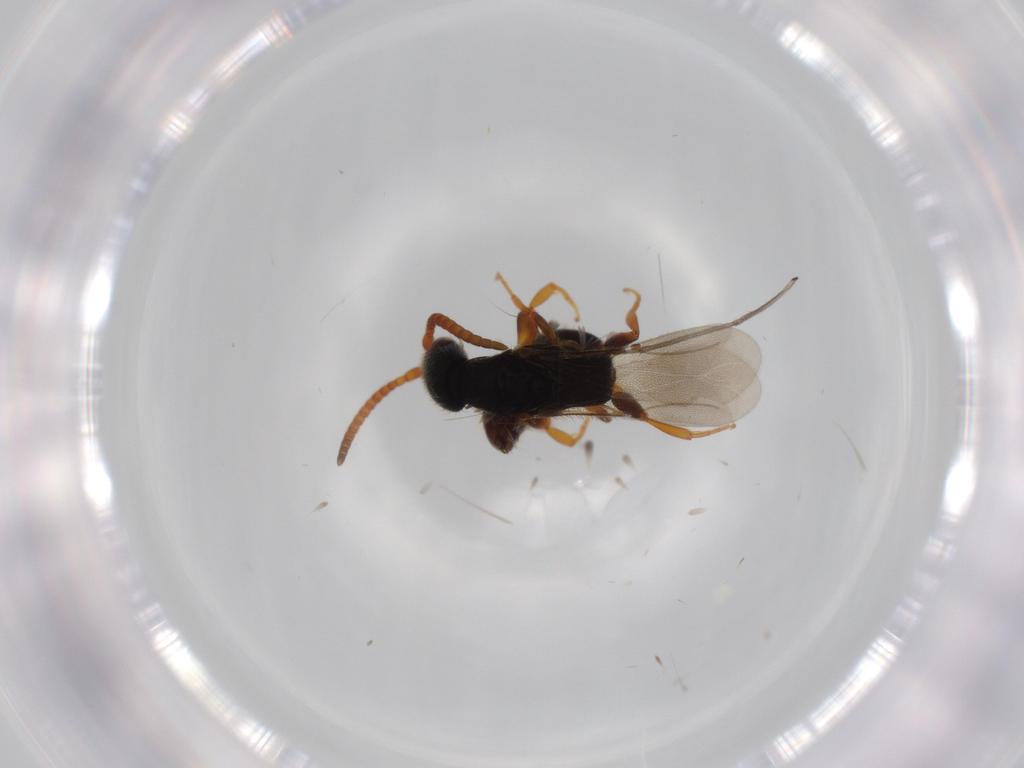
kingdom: Animalia
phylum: Arthropoda
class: Insecta
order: Hymenoptera
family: Bethylidae
